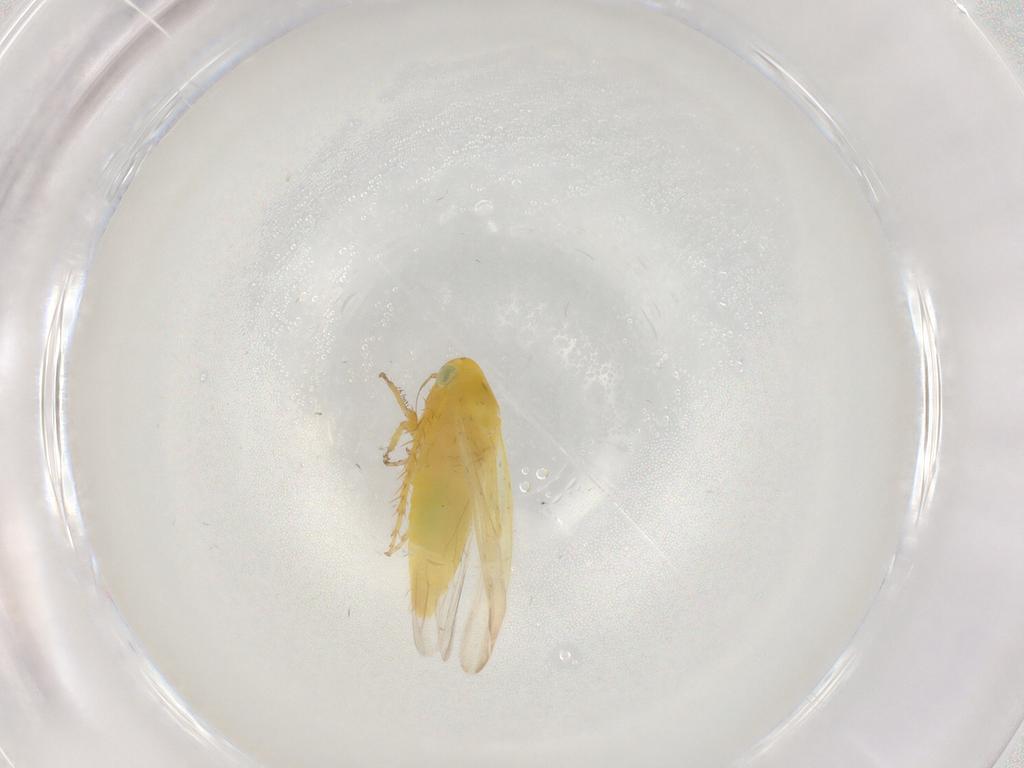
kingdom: Animalia
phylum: Arthropoda
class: Insecta
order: Hemiptera
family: Cicadellidae
